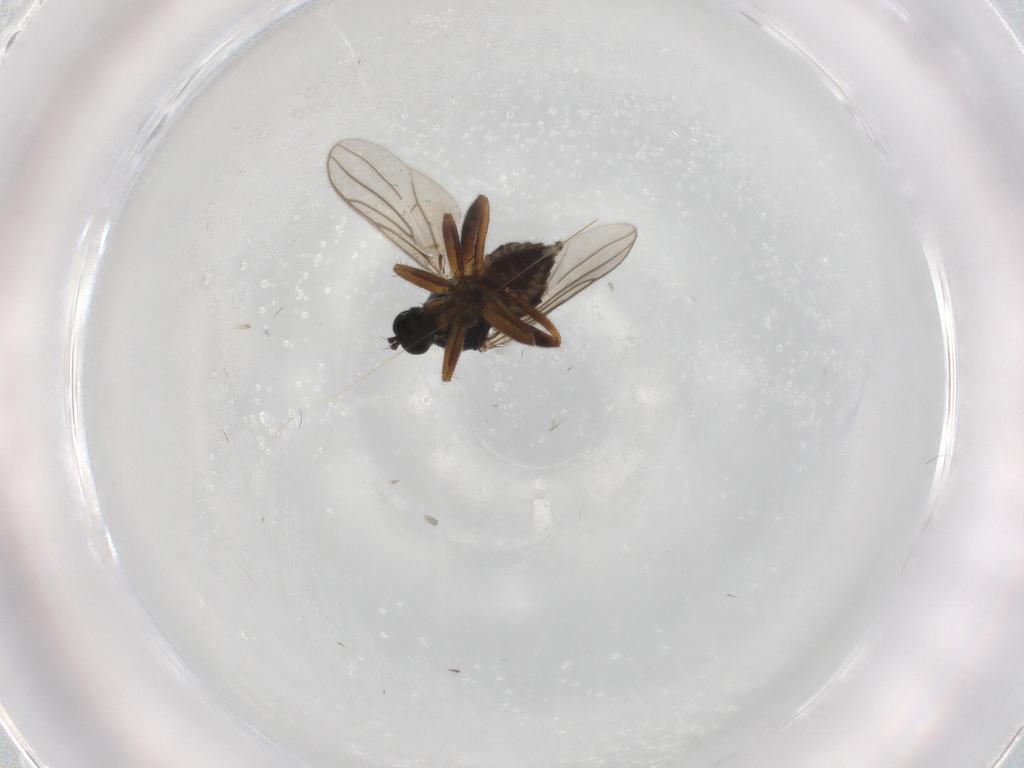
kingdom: Animalia
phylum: Arthropoda
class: Insecta
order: Diptera
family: Hybotidae
